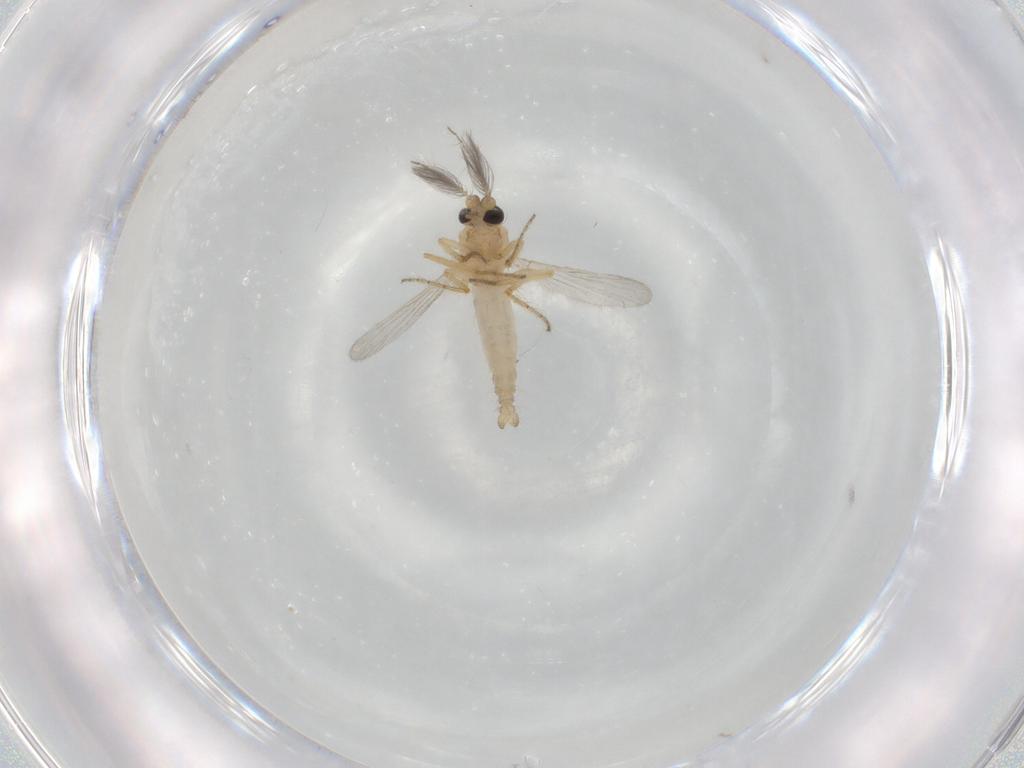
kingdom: Animalia
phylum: Arthropoda
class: Insecta
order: Diptera
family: Ceratopogonidae
